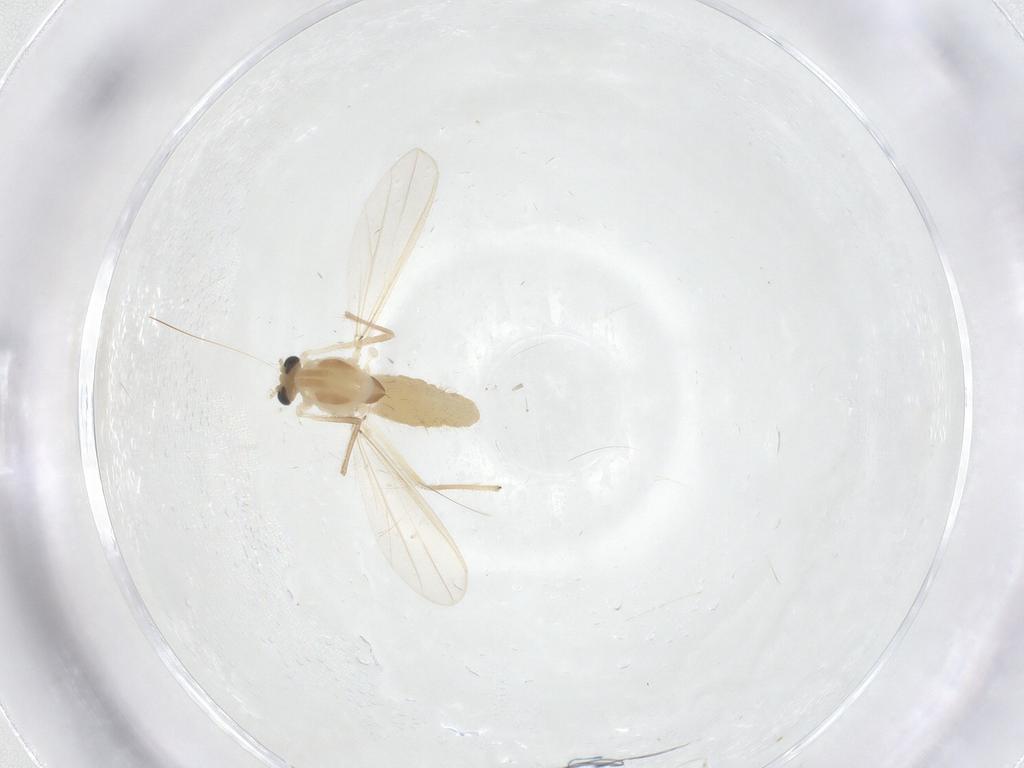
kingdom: Animalia
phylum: Arthropoda
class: Insecta
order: Diptera
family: Chironomidae
